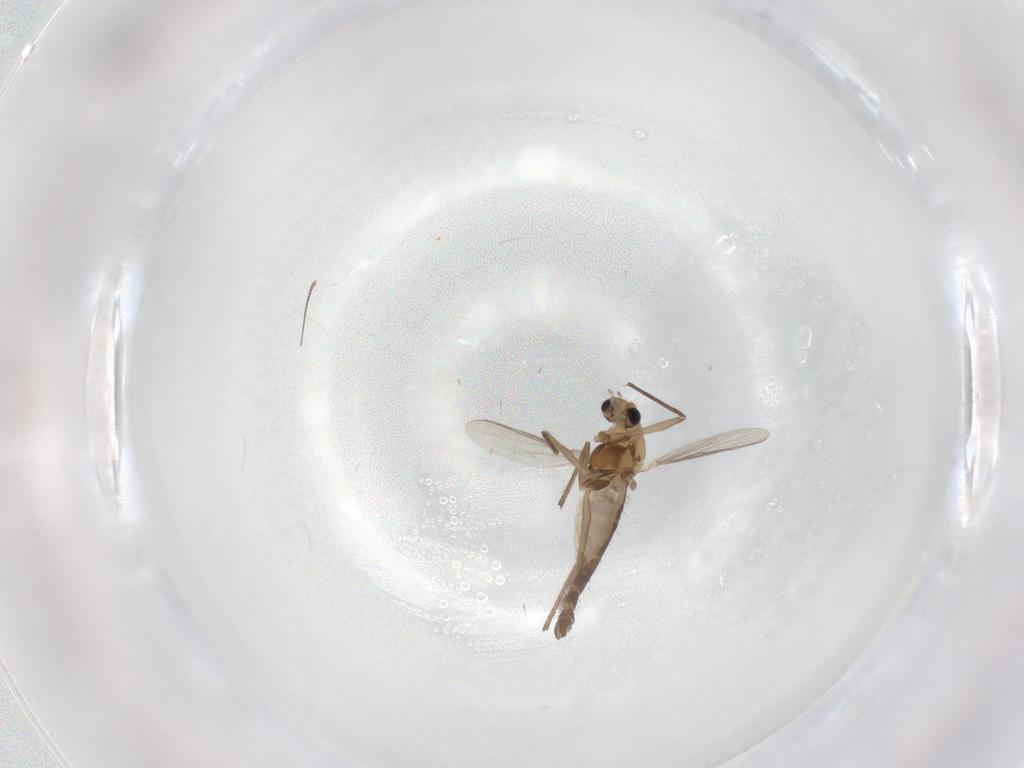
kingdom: Animalia
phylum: Arthropoda
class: Insecta
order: Diptera
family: Chironomidae
